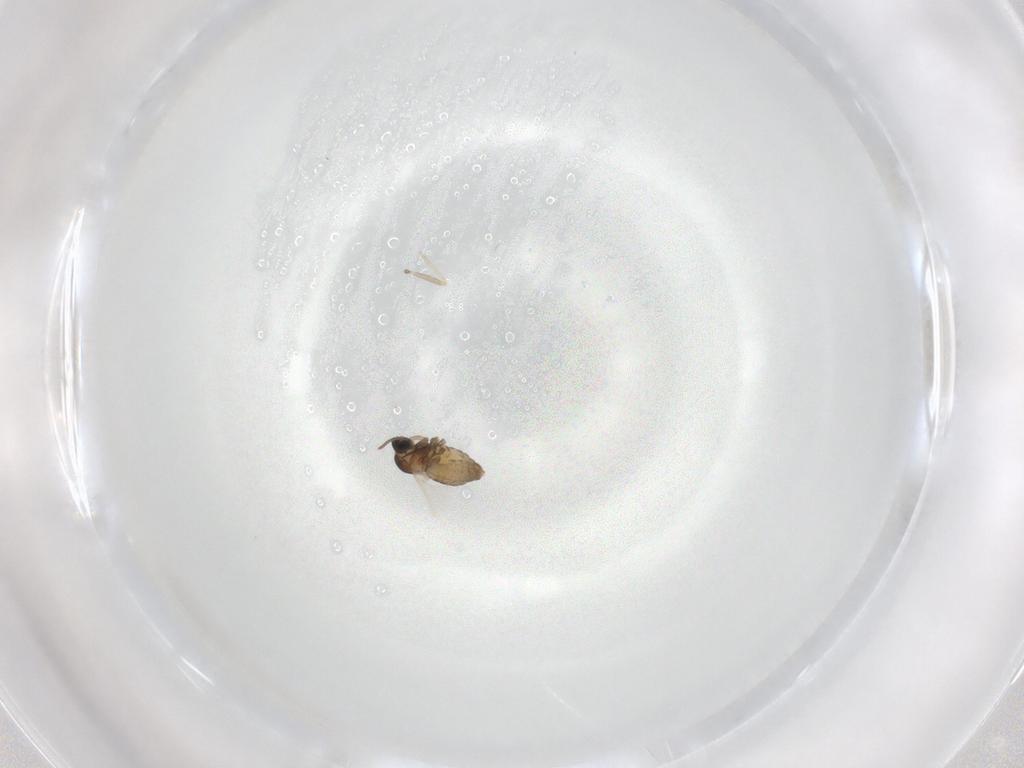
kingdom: Animalia
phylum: Arthropoda
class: Insecta
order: Diptera
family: Cecidomyiidae
